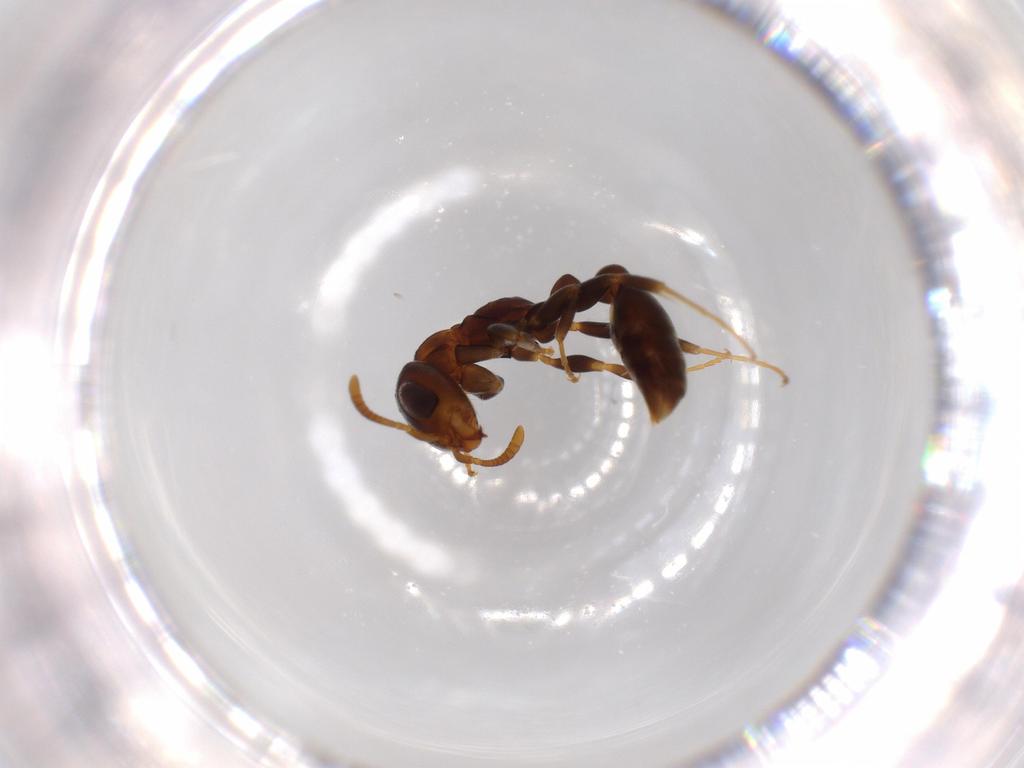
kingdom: Animalia
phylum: Arthropoda
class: Insecta
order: Hymenoptera
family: Formicidae
